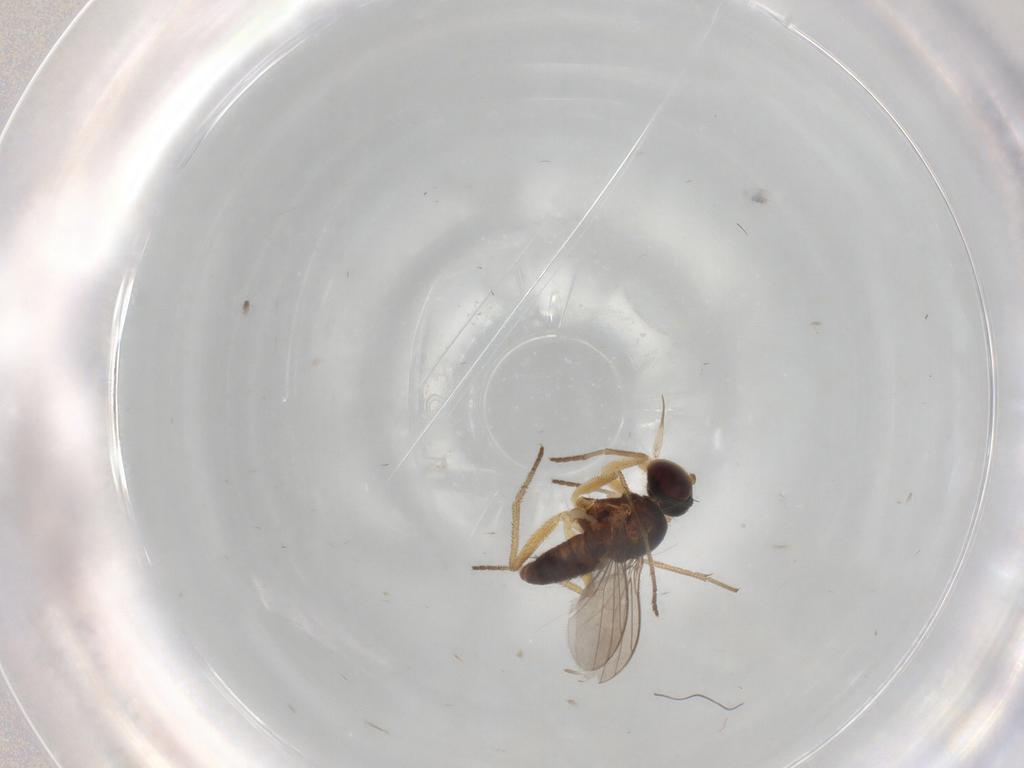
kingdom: Animalia
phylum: Arthropoda
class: Insecta
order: Diptera
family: Dolichopodidae
